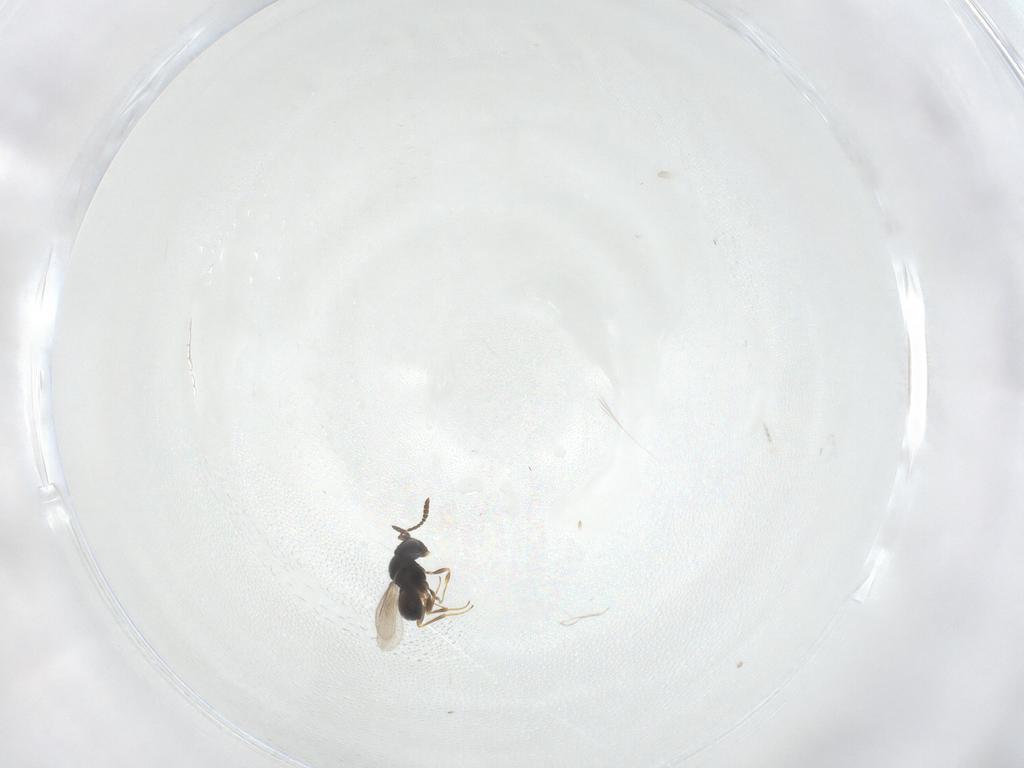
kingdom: Animalia
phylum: Arthropoda
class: Insecta
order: Hymenoptera
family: Scelionidae
